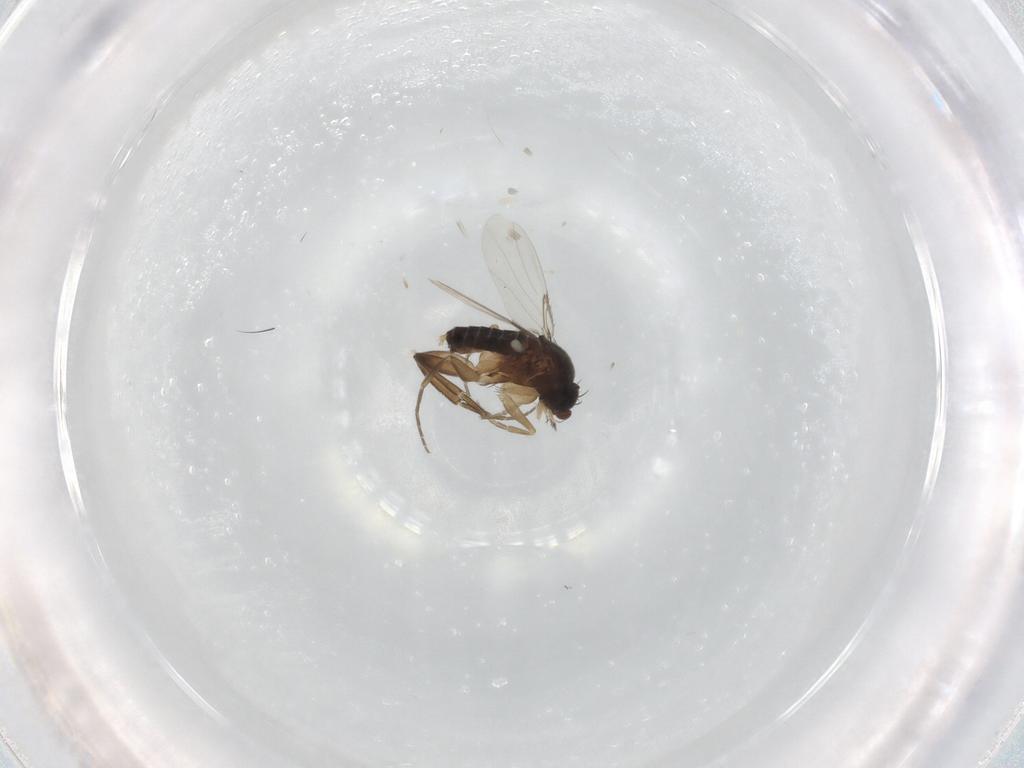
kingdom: Animalia
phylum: Arthropoda
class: Insecta
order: Diptera
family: Phoridae
